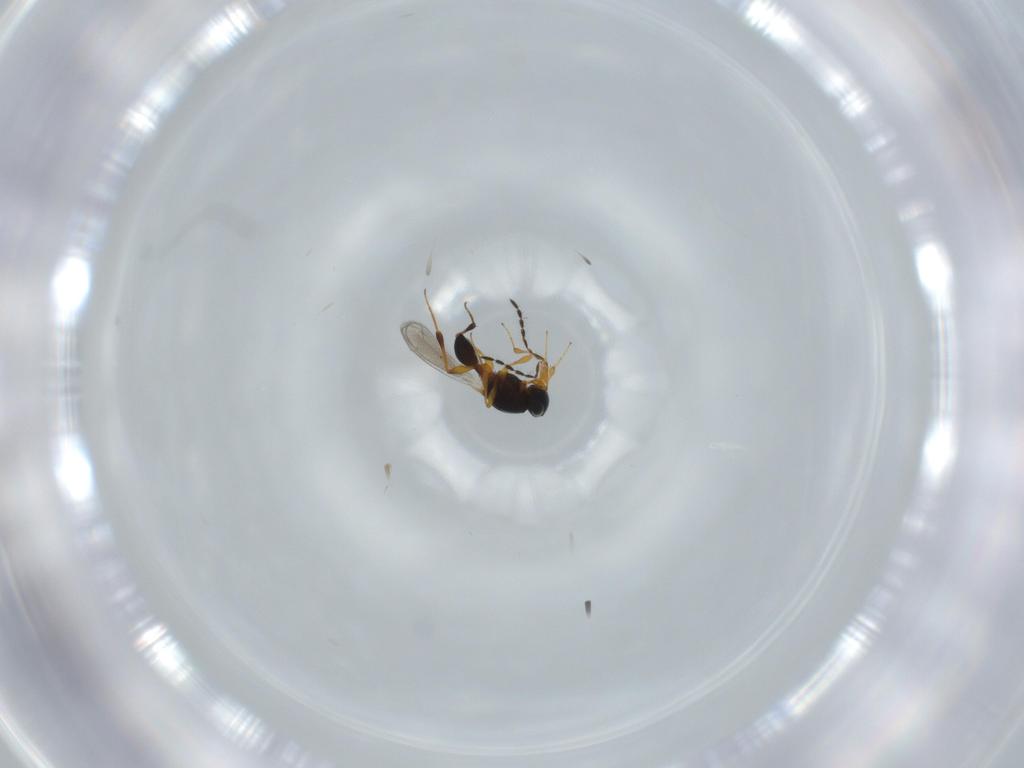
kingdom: Animalia
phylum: Arthropoda
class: Insecta
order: Hymenoptera
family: Platygastridae
